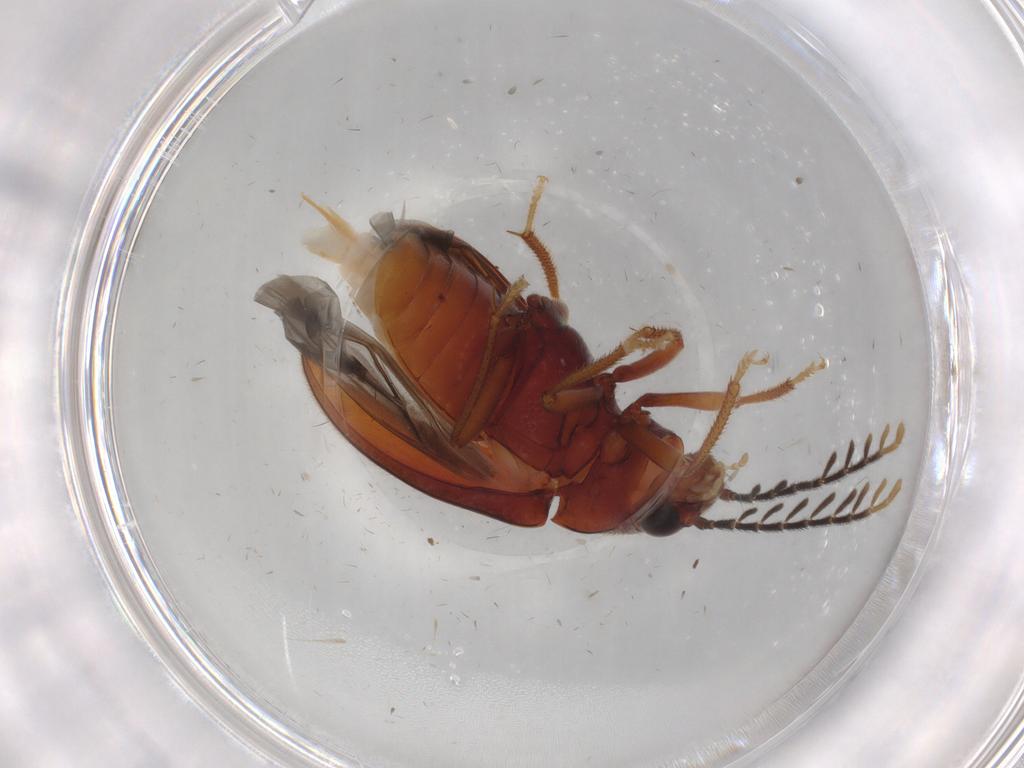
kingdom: Animalia
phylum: Arthropoda
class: Insecta
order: Coleoptera
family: Ptilodactylidae
